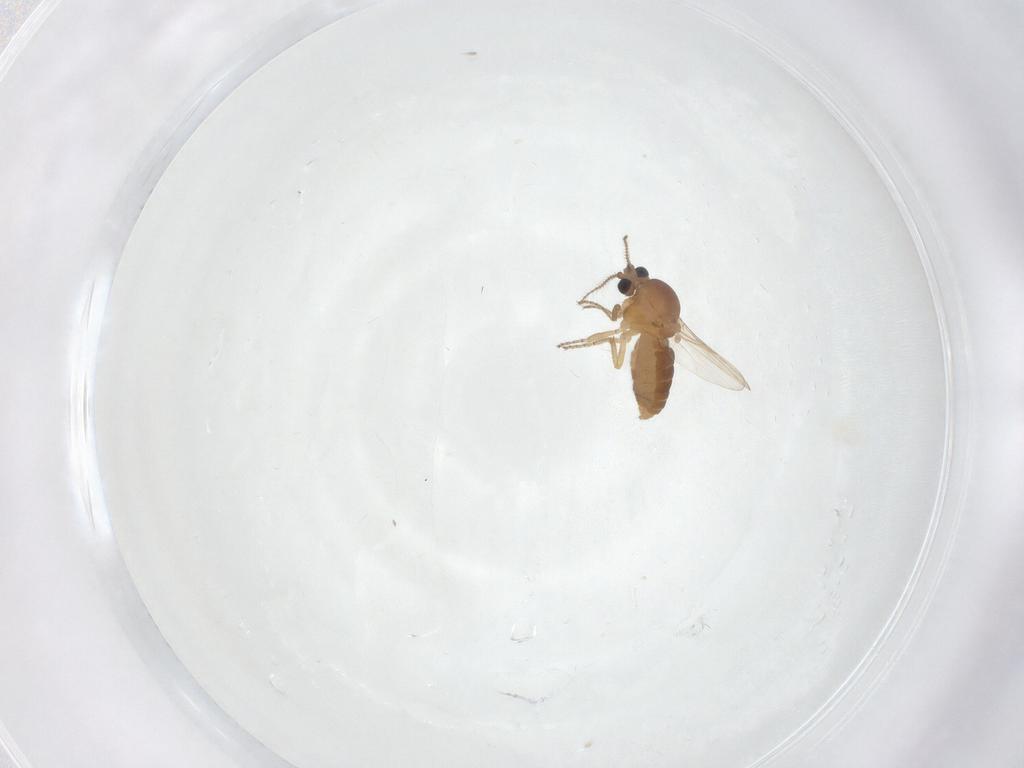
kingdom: Animalia
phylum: Arthropoda
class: Insecta
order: Diptera
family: Ceratopogonidae
